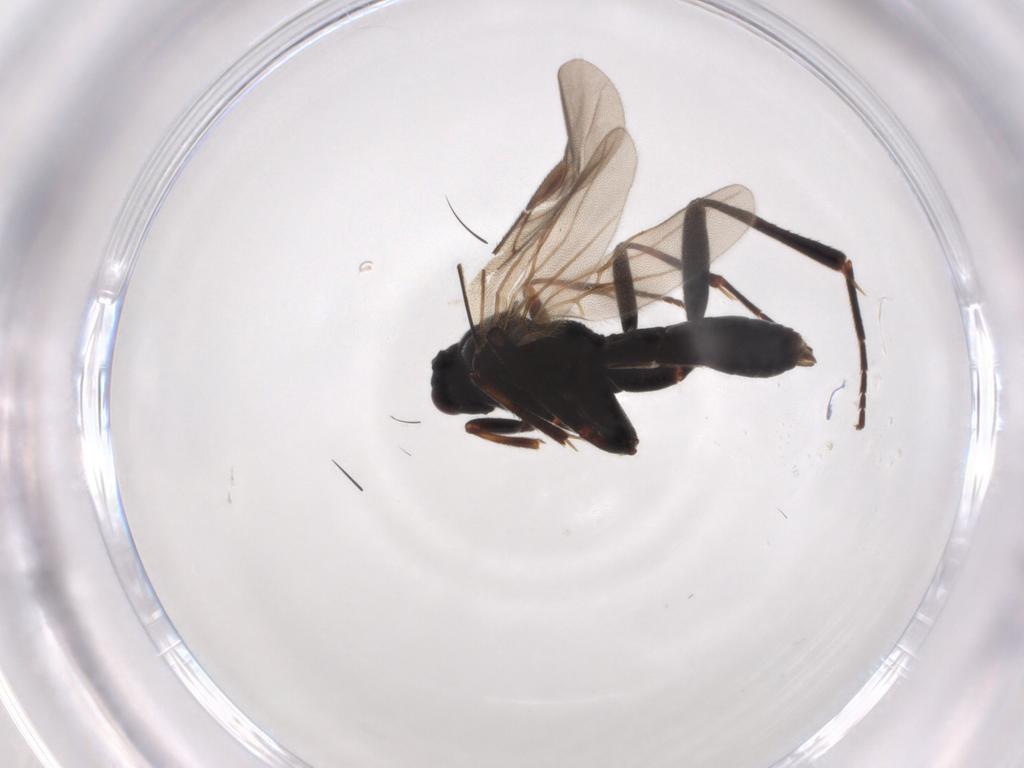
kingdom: Animalia
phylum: Arthropoda
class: Insecta
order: Hymenoptera
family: Braconidae
